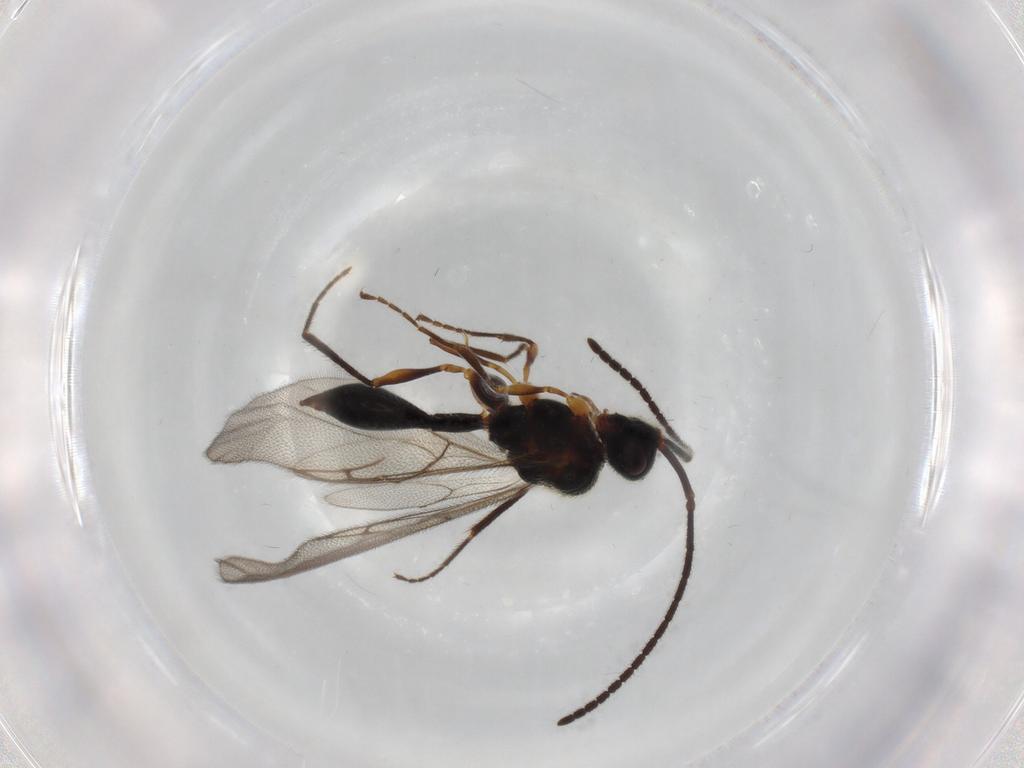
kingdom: Animalia
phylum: Arthropoda
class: Insecta
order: Hymenoptera
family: Diapriidae
